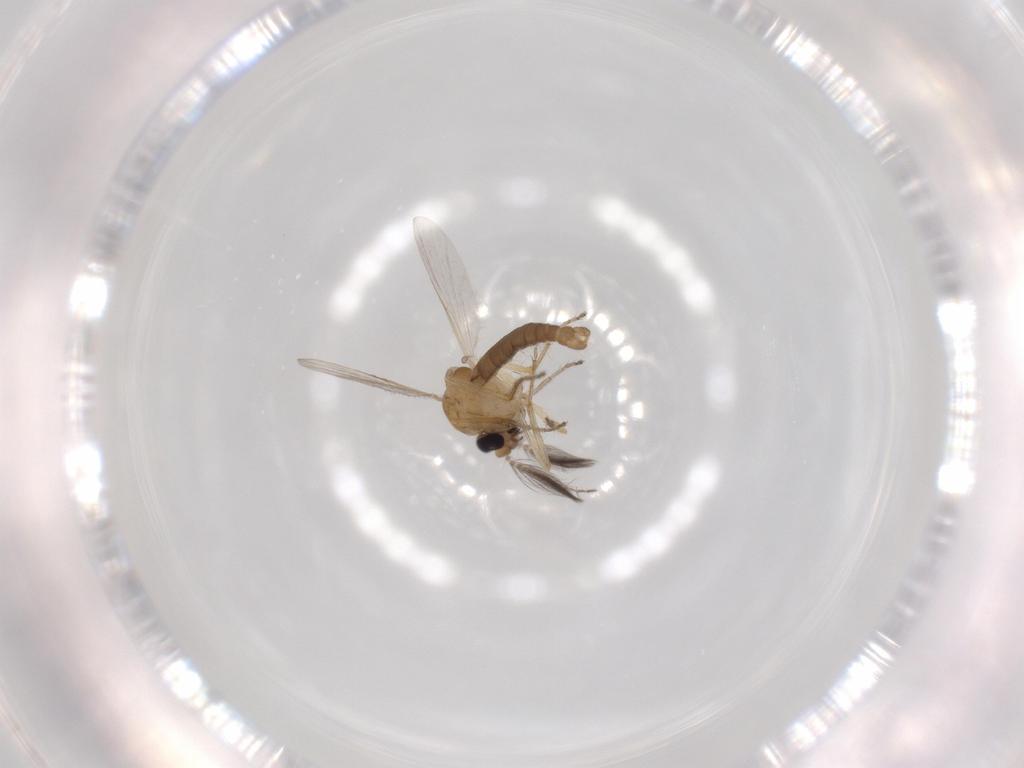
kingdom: Animalia
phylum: Arthropoda
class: Insecta
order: Diptera
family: Ceratopogonidae
